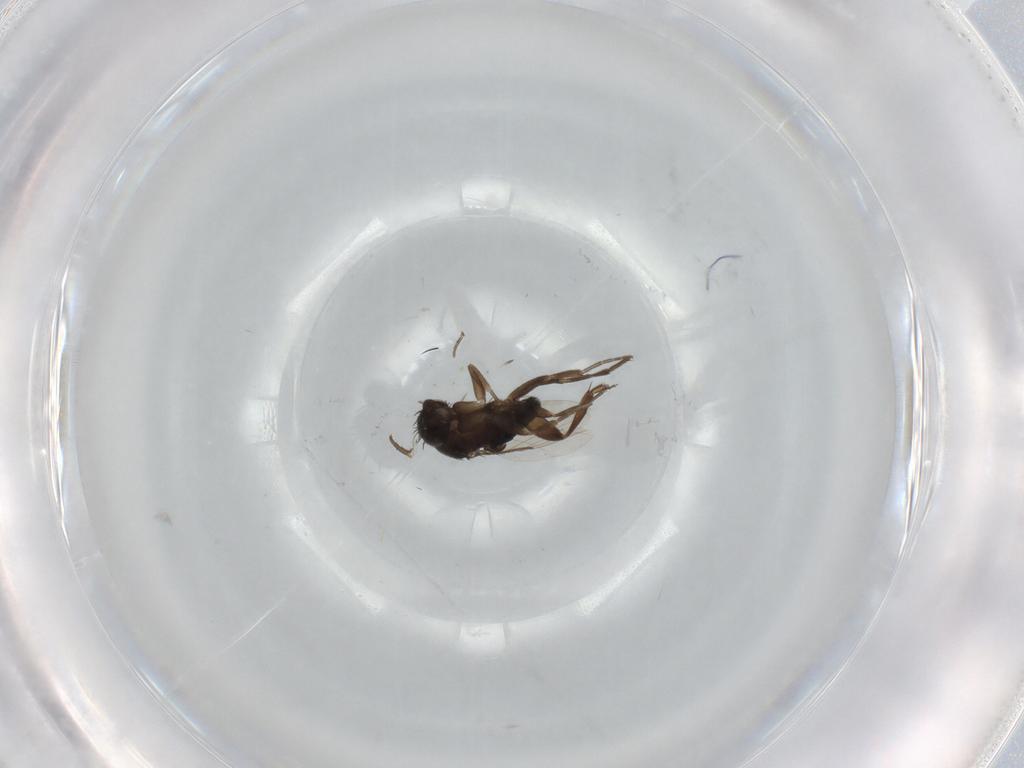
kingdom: Animalia
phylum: Arthropoda
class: Insecta
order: Diptera
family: Phoridae
